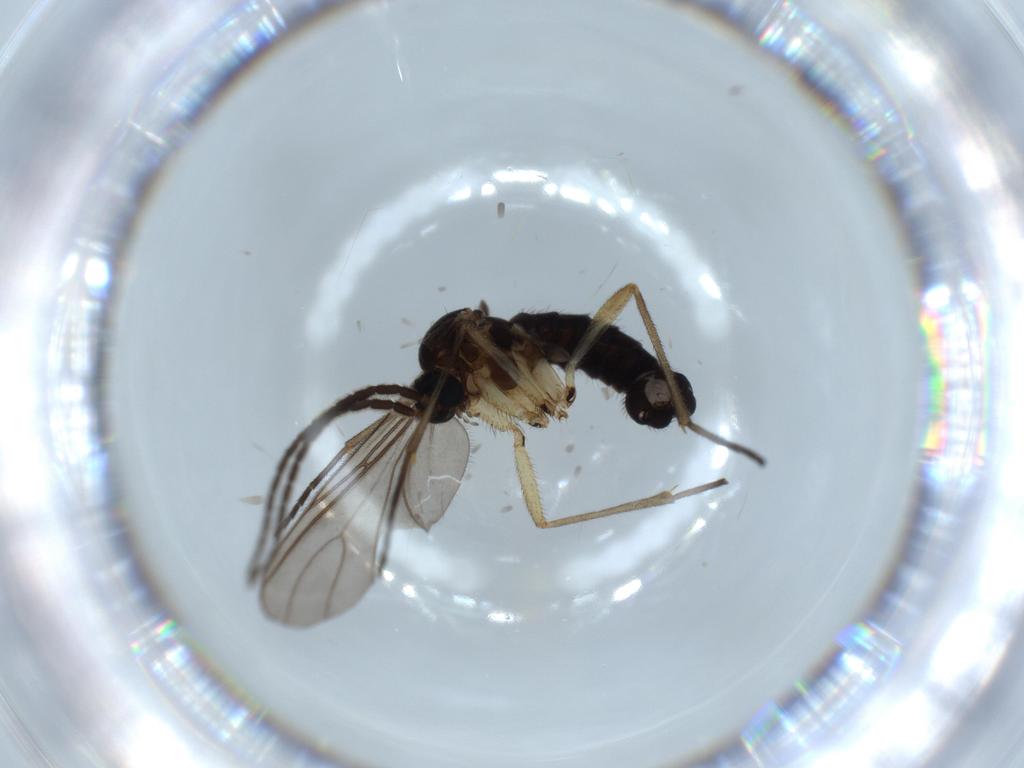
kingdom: Animalia
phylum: Arthropoda
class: Insecta
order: Diptera
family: Sciaridae
